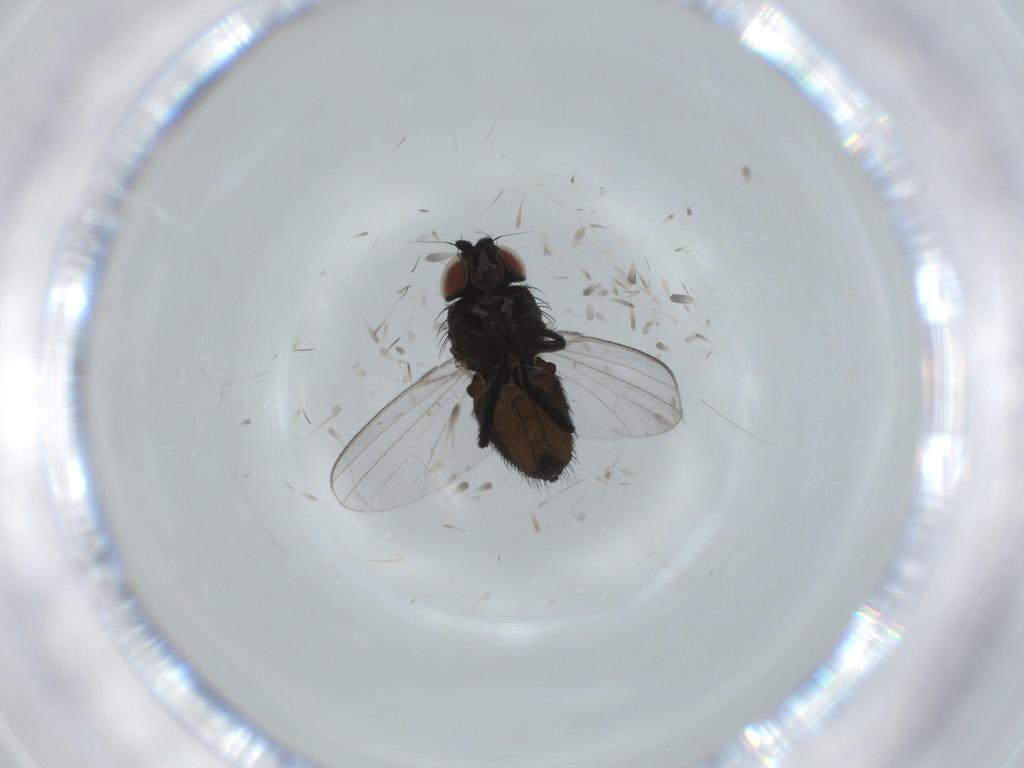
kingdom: Animalia
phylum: Arthropoda
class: Insecta
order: Diptera
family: Milichiidae
